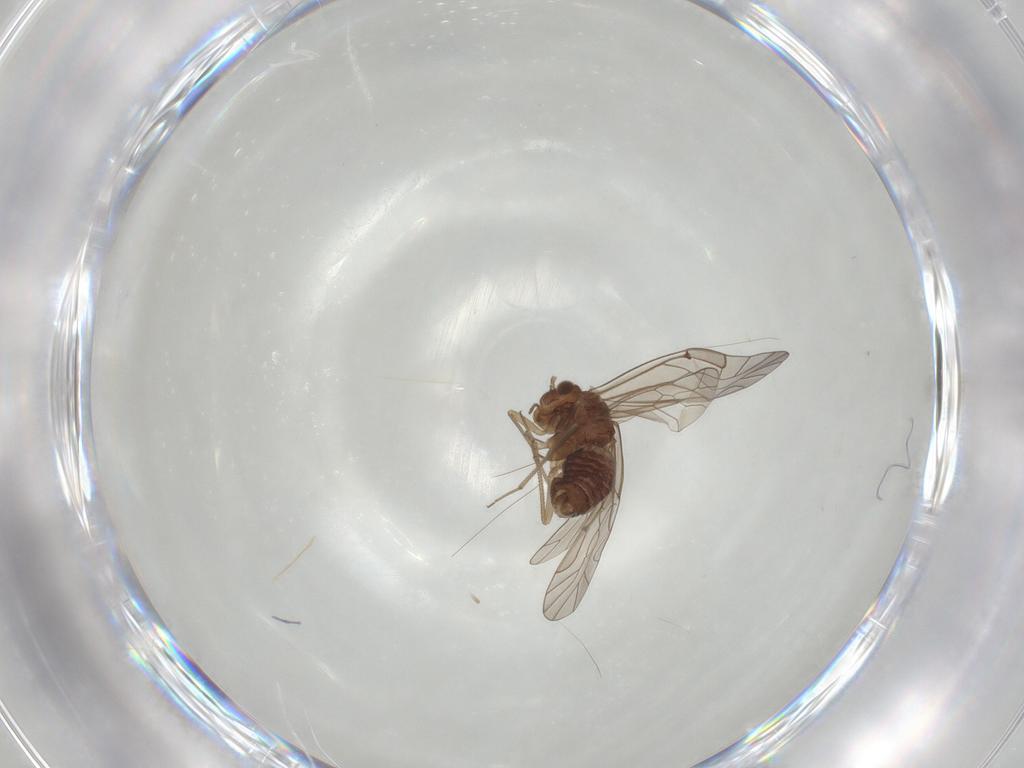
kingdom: Animalia
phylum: Arthropoda
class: Insecta
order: Psocodea
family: Lachesillidae
